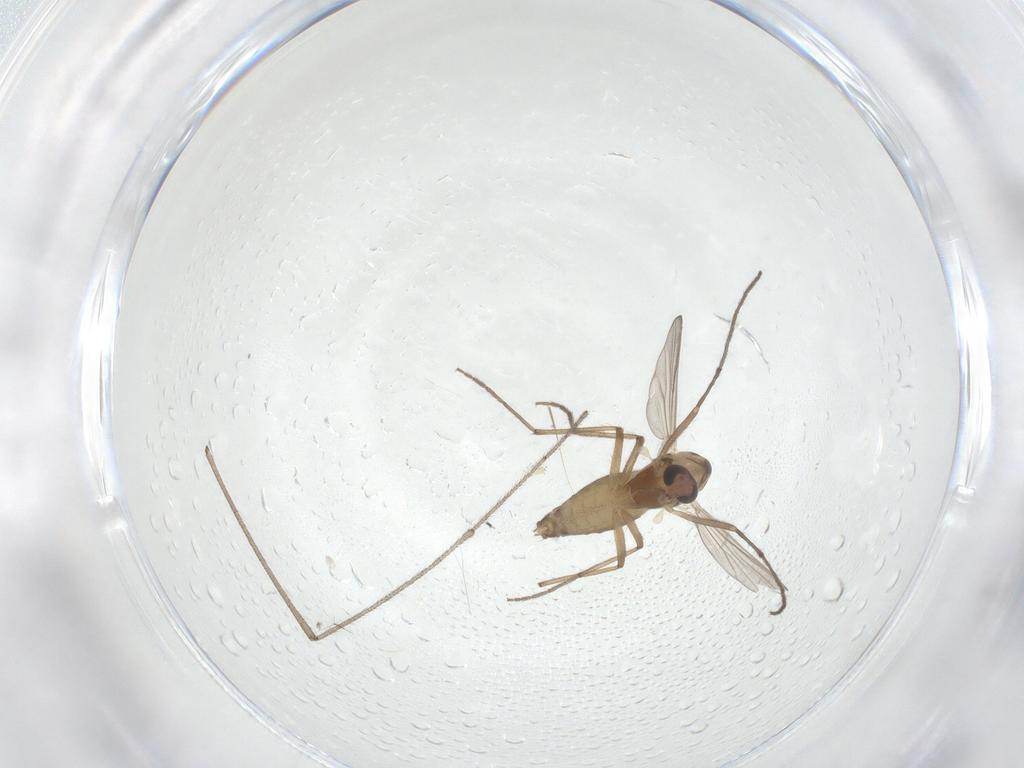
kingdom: Animalia
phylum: Arthropoda
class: Insecta
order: Diptera
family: Chironomidae
